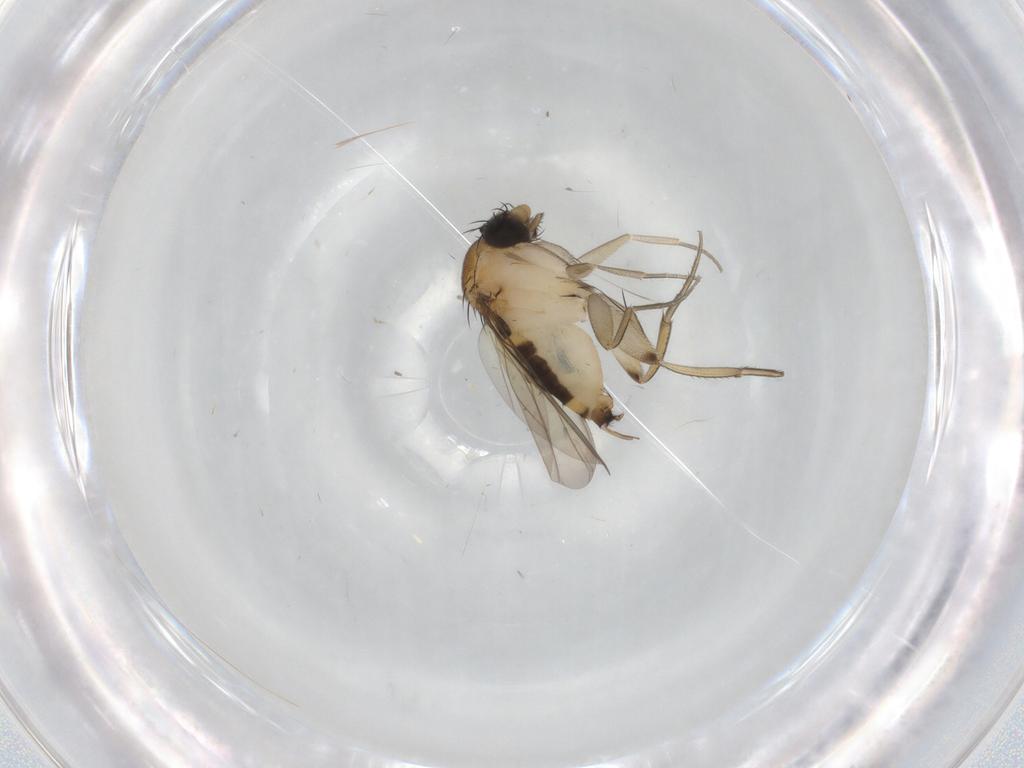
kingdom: Animalia
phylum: Arthropoda
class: Insecta
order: Diptera
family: Phoridae
